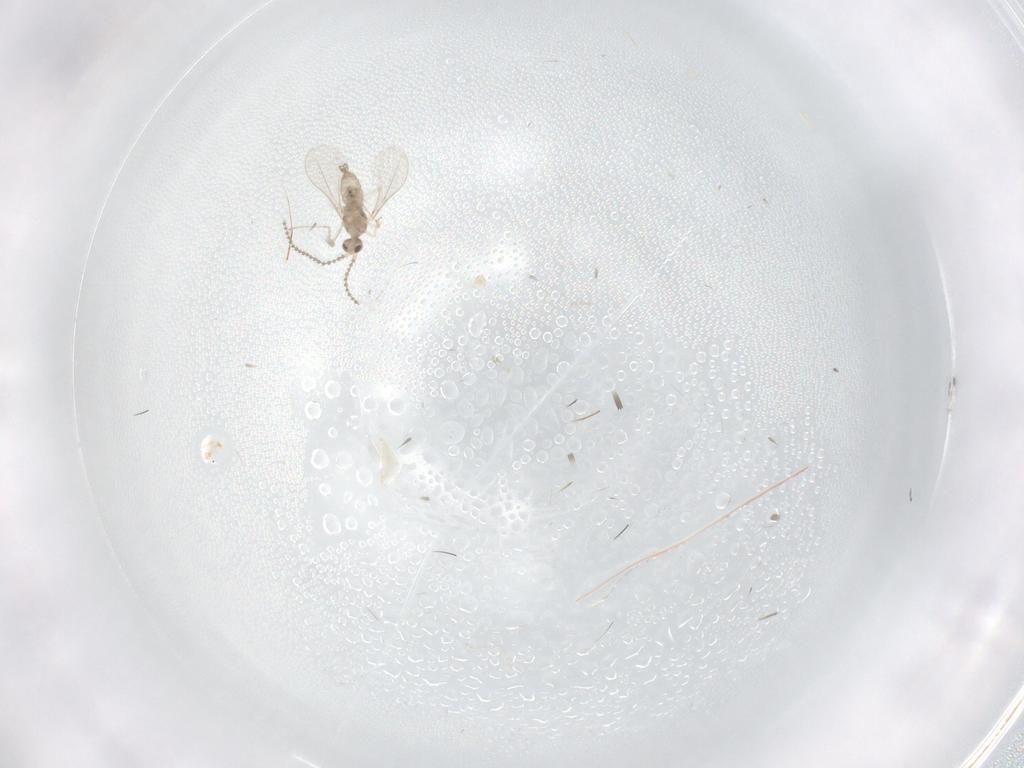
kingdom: Animalia
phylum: Arthropoda
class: Insecta
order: Diptera
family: Cecidomyiidae
